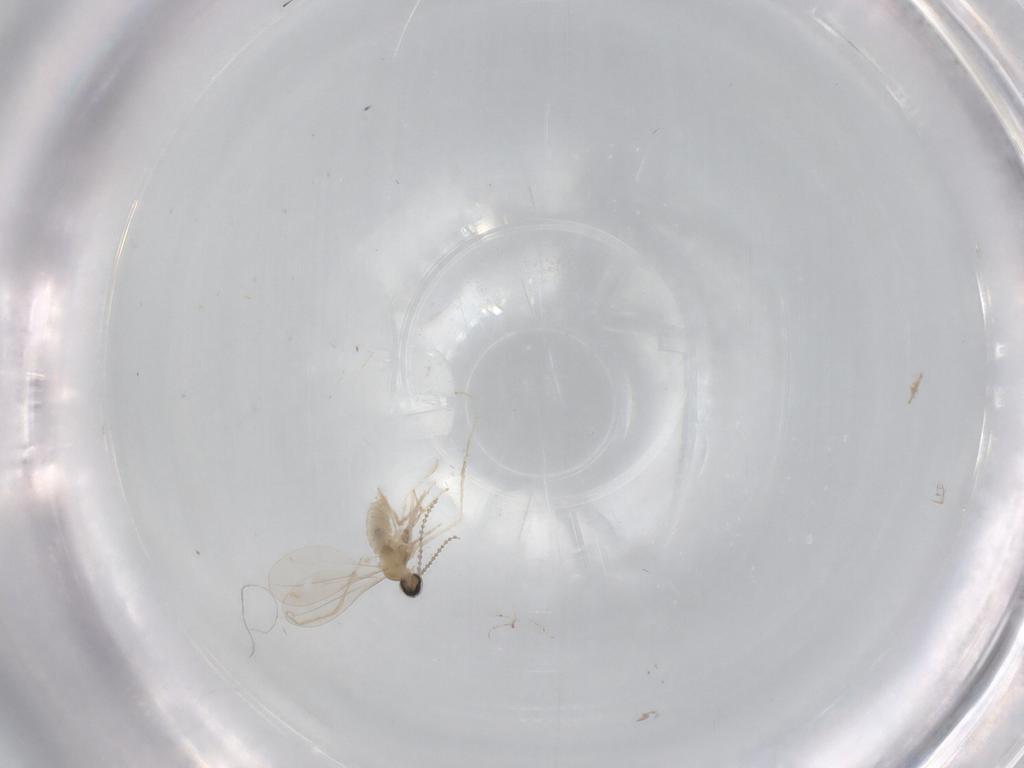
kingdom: Animalia
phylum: Arthropoda
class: Insecta
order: Diptera
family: Cecidomyiidae
